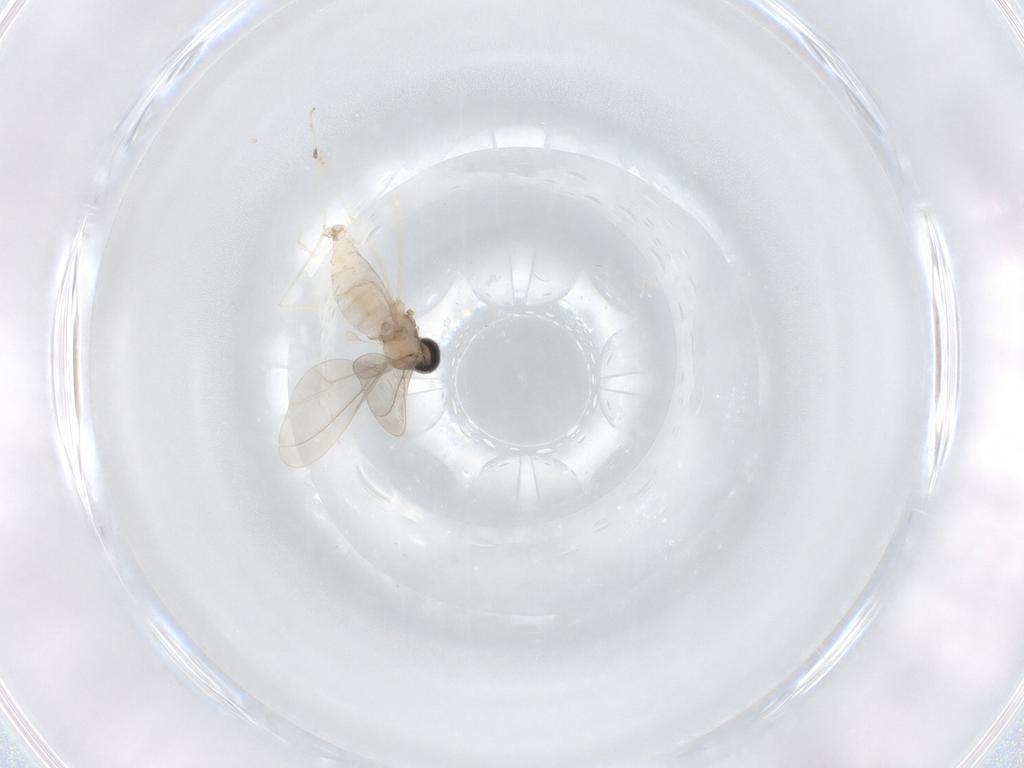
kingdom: Animalia
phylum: Arthropoda
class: Insecta
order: Diptera
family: Cecidomyiidae
